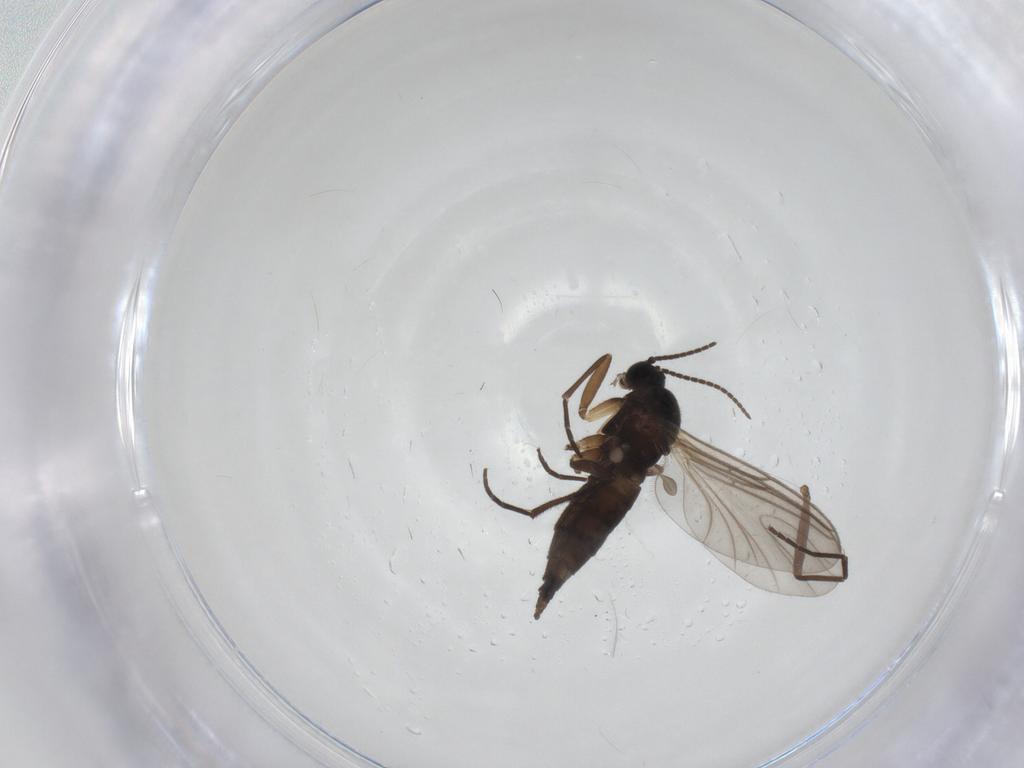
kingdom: Animalia
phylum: Arthropoda
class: Insecta
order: Diptera
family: Sciaridae
